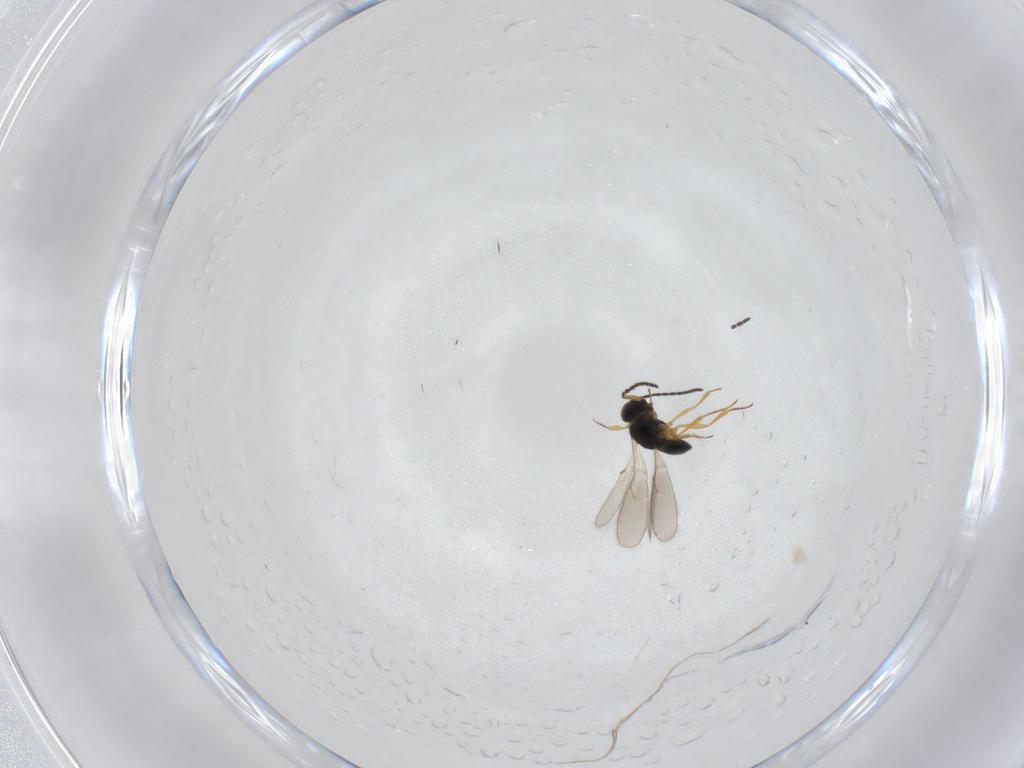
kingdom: Animalia
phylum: Arthropoda
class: Insecta
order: Hymenoptera
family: Scelionidae
